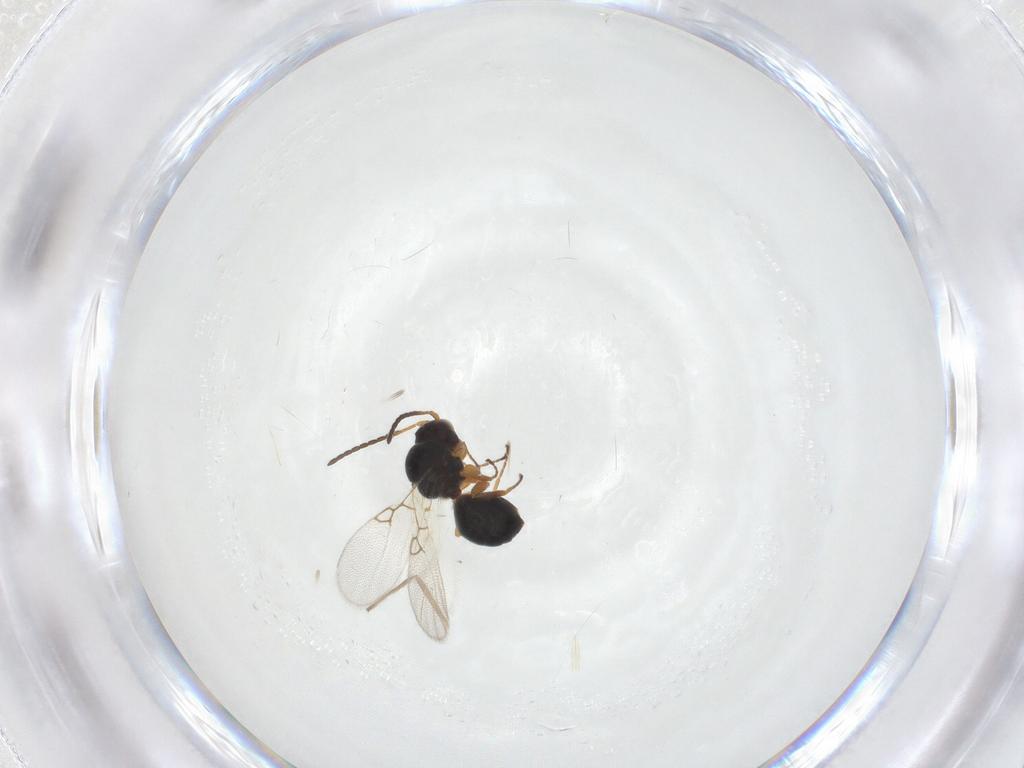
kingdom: Animalia
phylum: Arthropoda
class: Insecta
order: Hymenoptera
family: Figitidae
